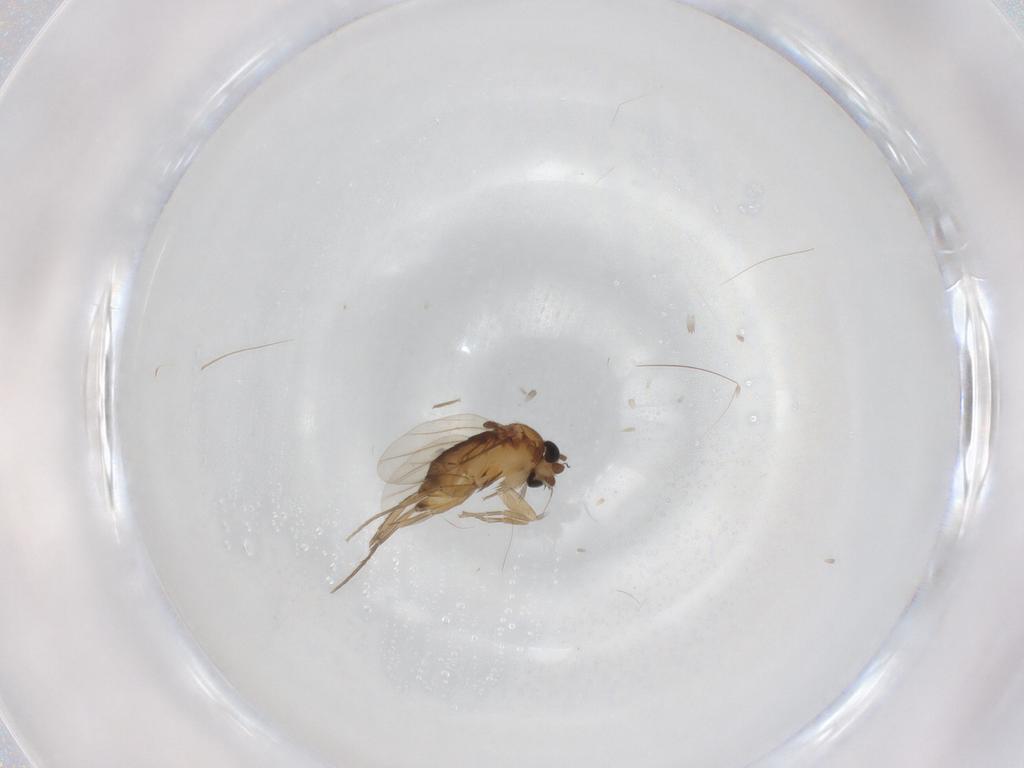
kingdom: Animalia
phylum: Arthropoda
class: Insecta
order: Diptera
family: Phoridae
